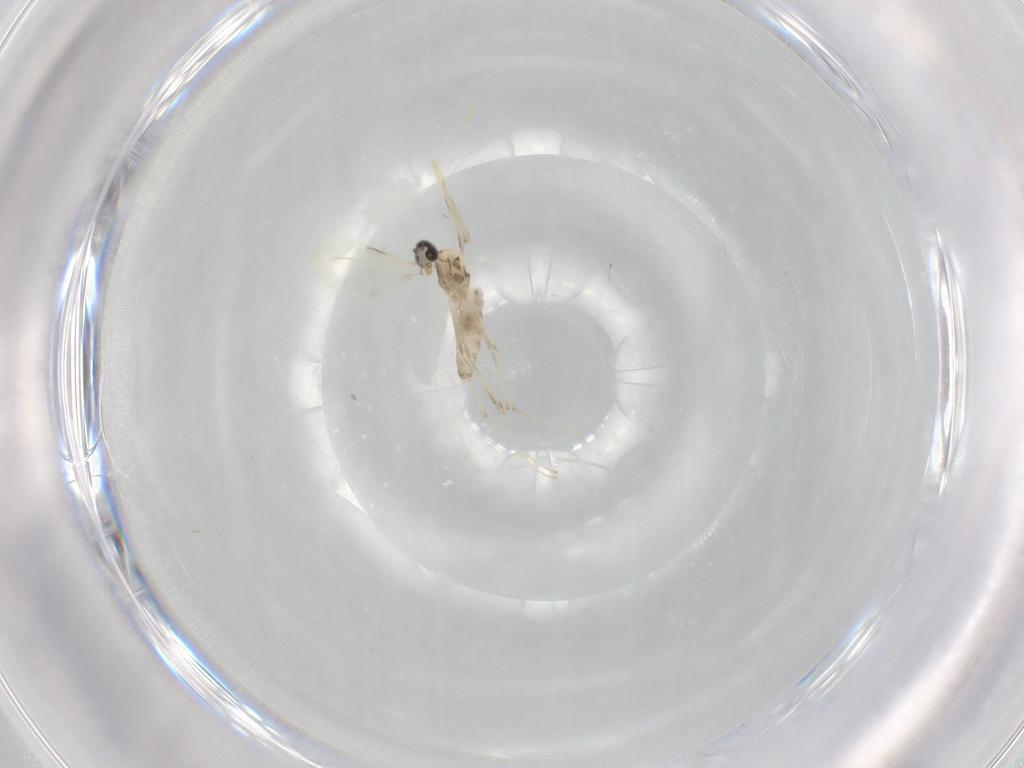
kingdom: Animalia
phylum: Arthropoda
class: Insecta
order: Diptera
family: Cecidomyiidae
